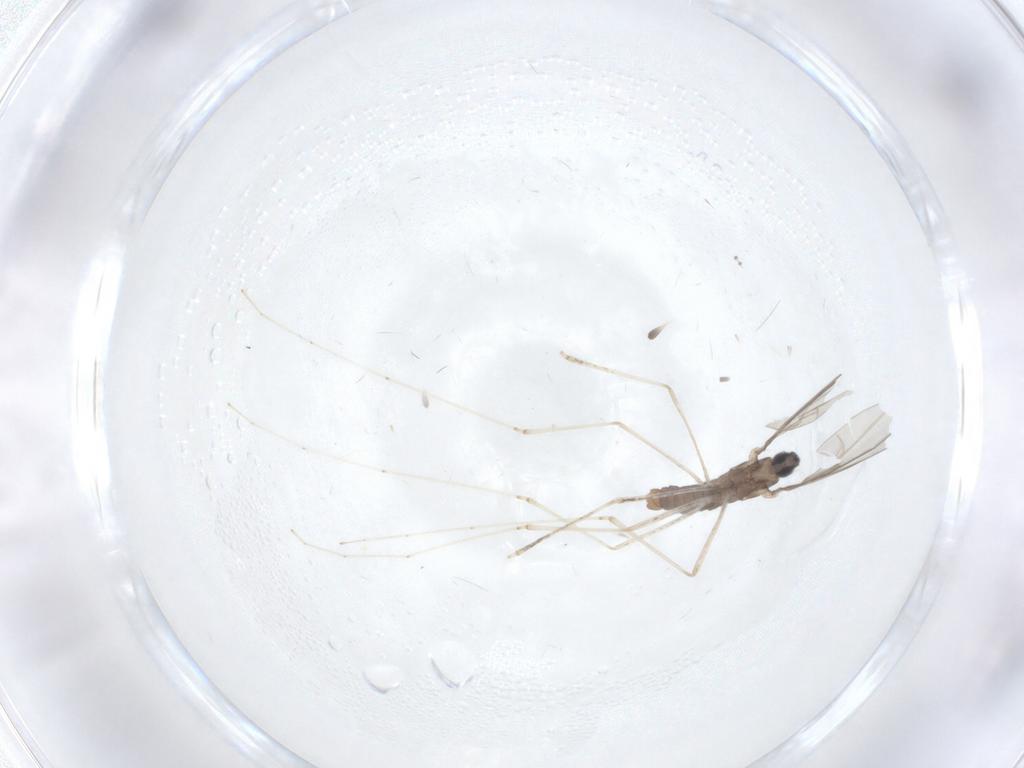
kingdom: Animalia
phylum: Arthropoda
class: Insecta
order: Diptera
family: Cecidomyiidae
